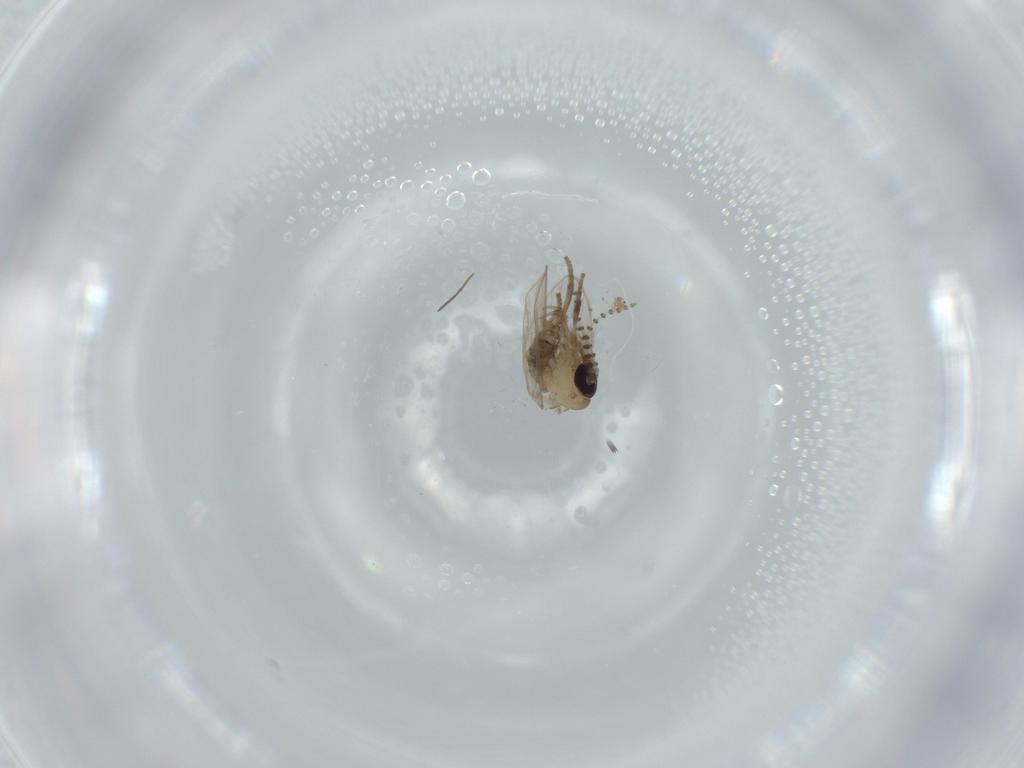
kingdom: Animalia
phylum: Arthropoda
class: Insecta
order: Diptera
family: Psychodidae
